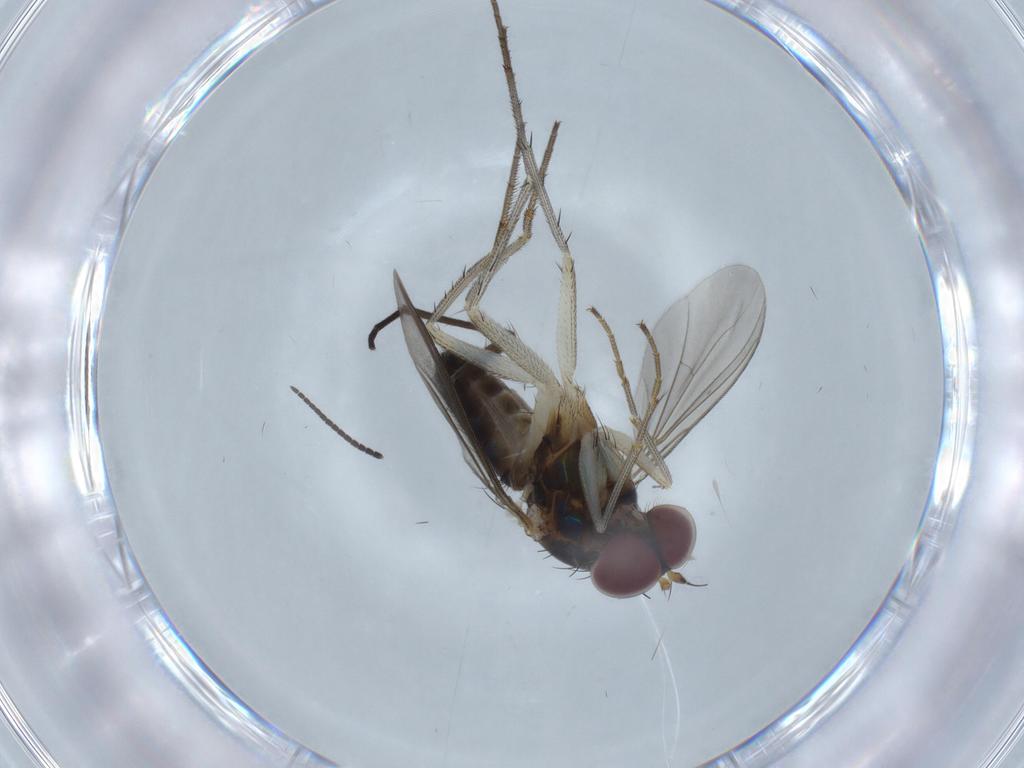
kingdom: Animalia
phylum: Arthropoda
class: Insecta
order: Diptera
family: Dolichopodidae
